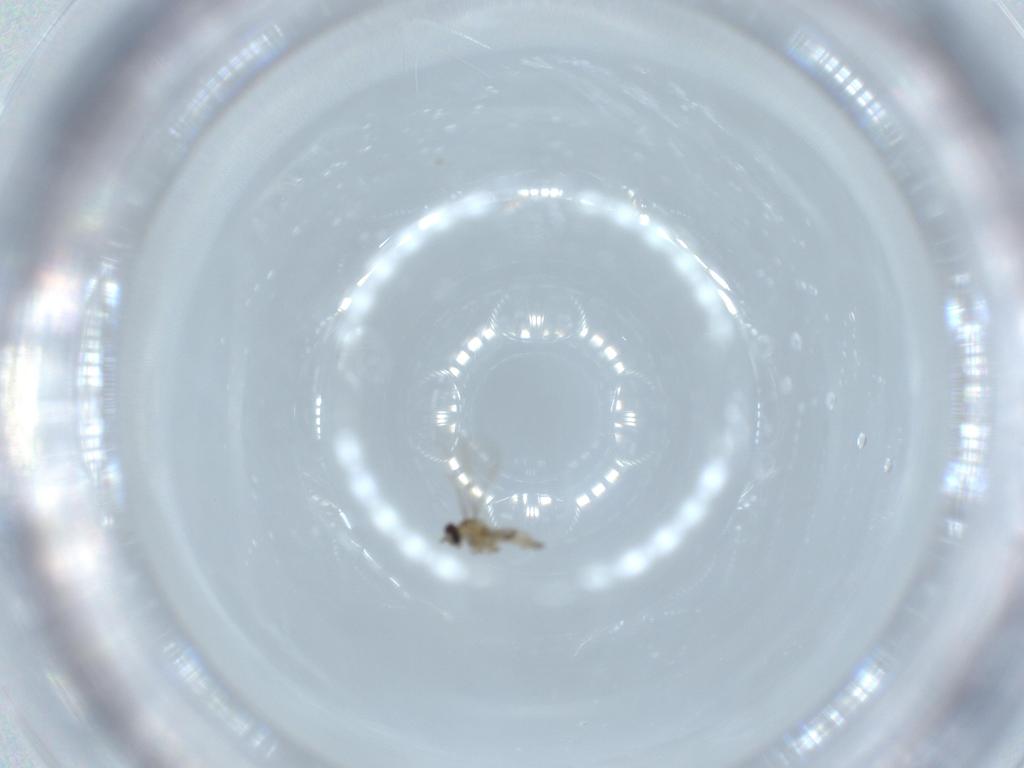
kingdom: Animalia
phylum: Arthropoda
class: Insecta
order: Diptera
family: Cecidomyiidae
